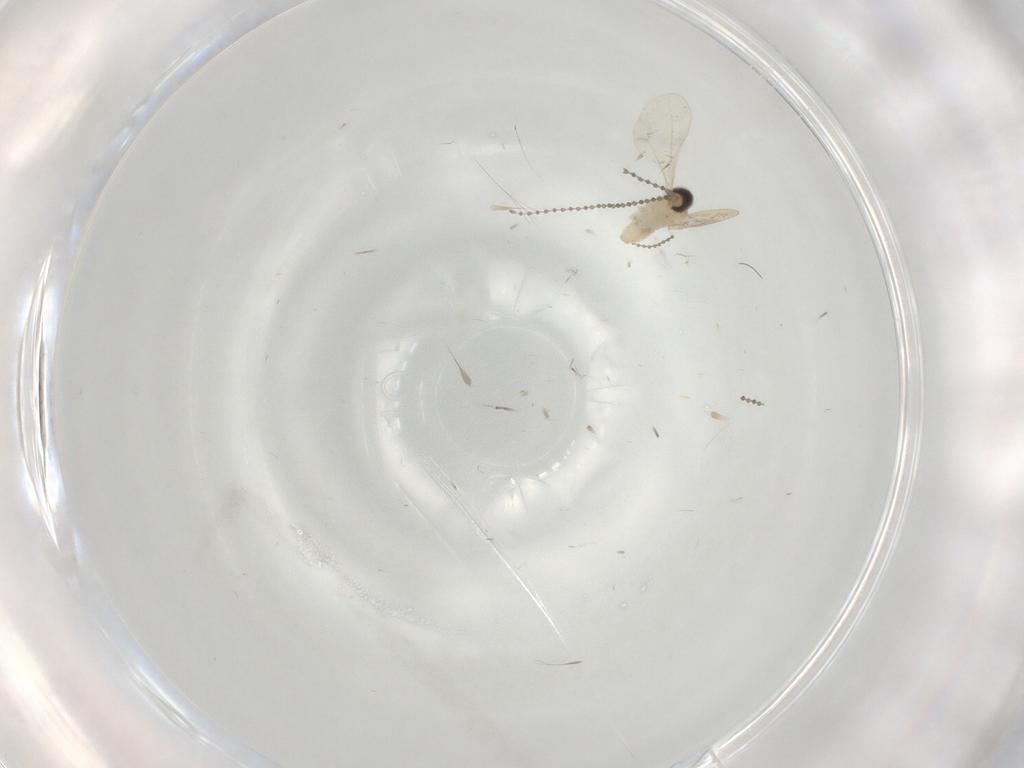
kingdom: Animalia
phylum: Arthropoda
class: Insecta
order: Diptera
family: Cecidomyiidae
